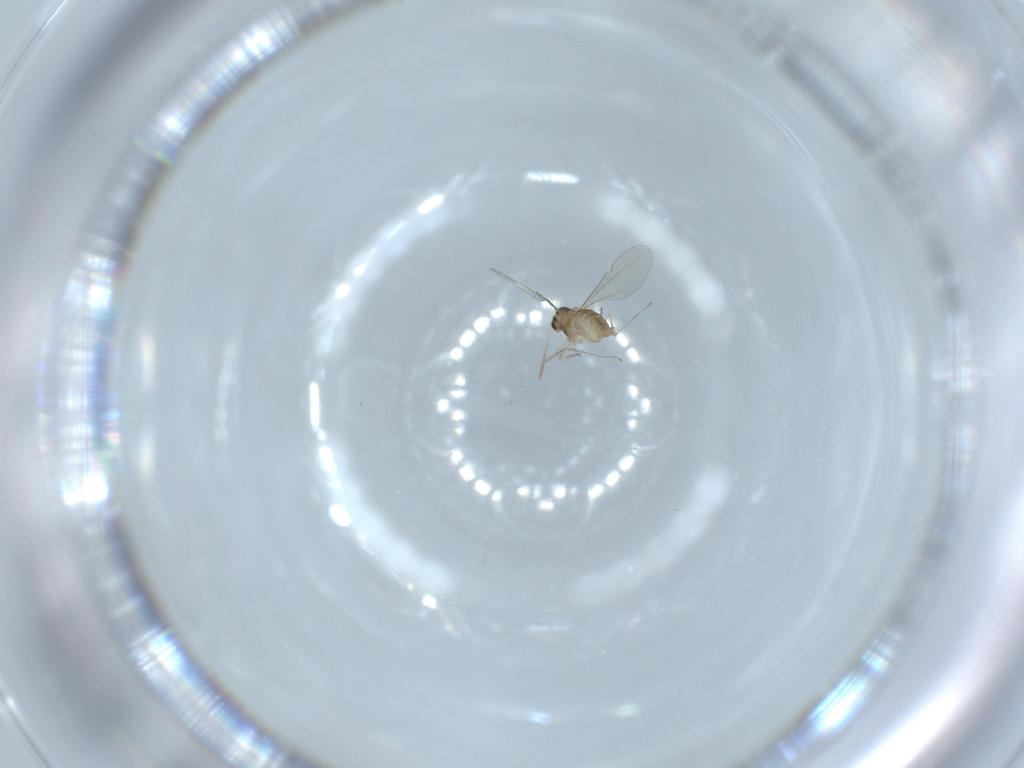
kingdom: Animalia
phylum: Arthropoda
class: Insecta
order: Diptera
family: Cecidomyiidae
